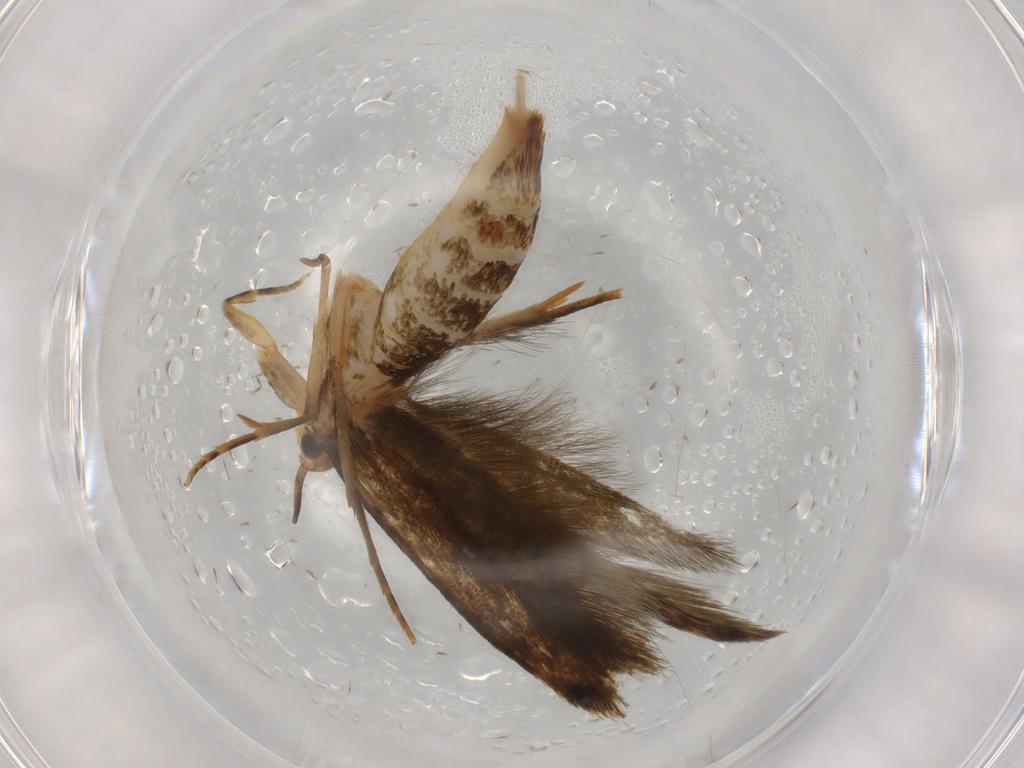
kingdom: Animalia
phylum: Arthropoda
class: Insecta
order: Lepidoptera
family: Tineidae
